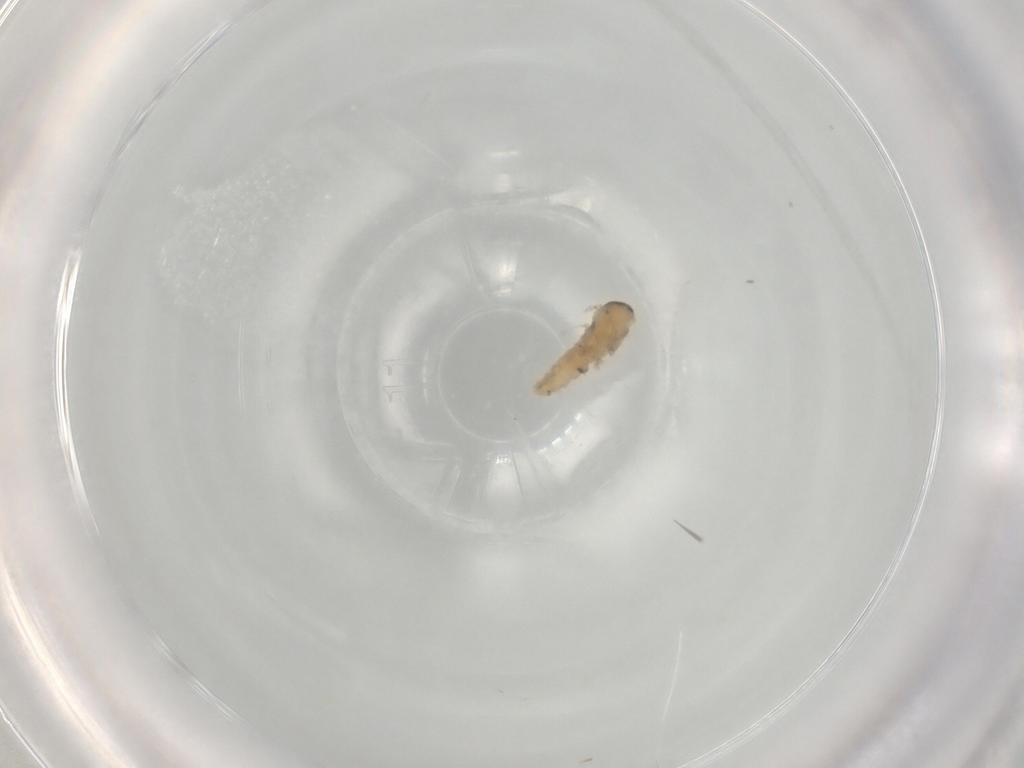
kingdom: Animalia
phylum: Arthropoda
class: Insecta
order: Diptera
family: Cecidomyiidae
